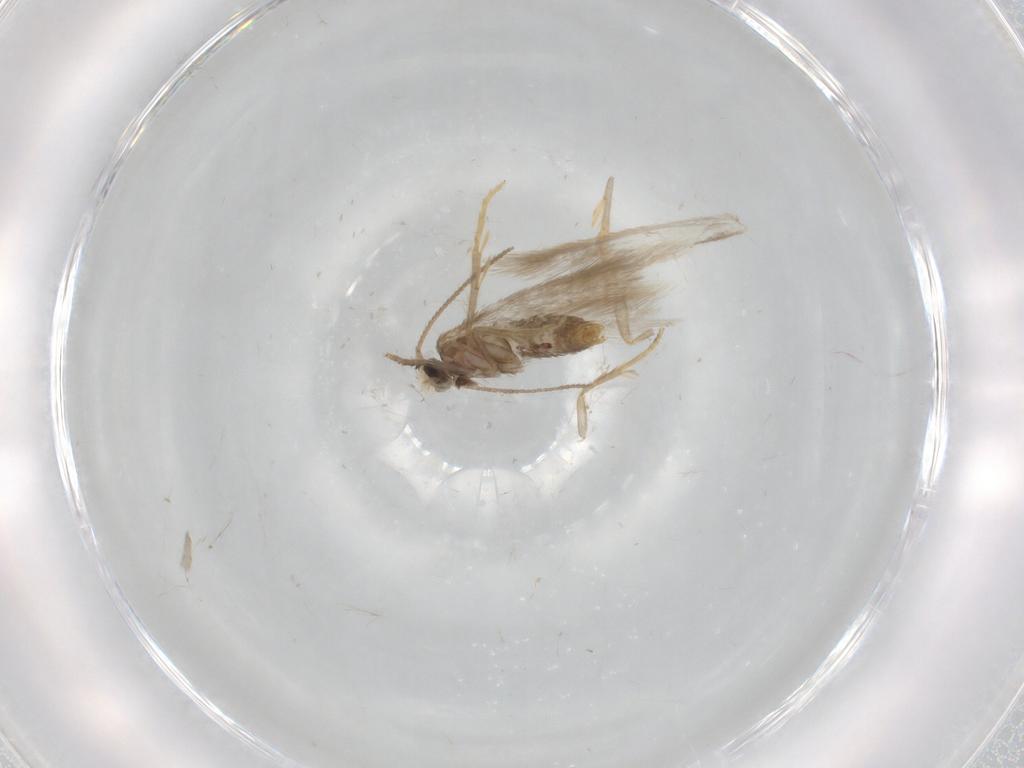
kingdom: Animalia
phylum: Arthropoda
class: Insecta
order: Lepidoptera
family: Nepticulidae
